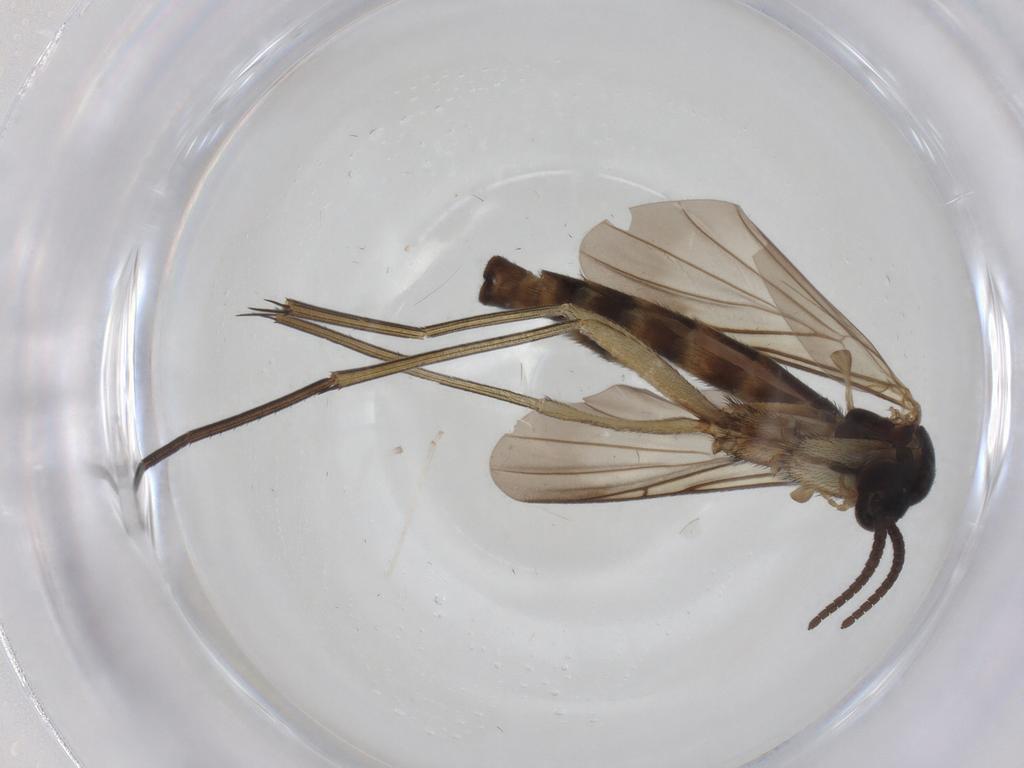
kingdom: Animalia
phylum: Arthropoda
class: Insecta
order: Diptera
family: Keroplatidae
